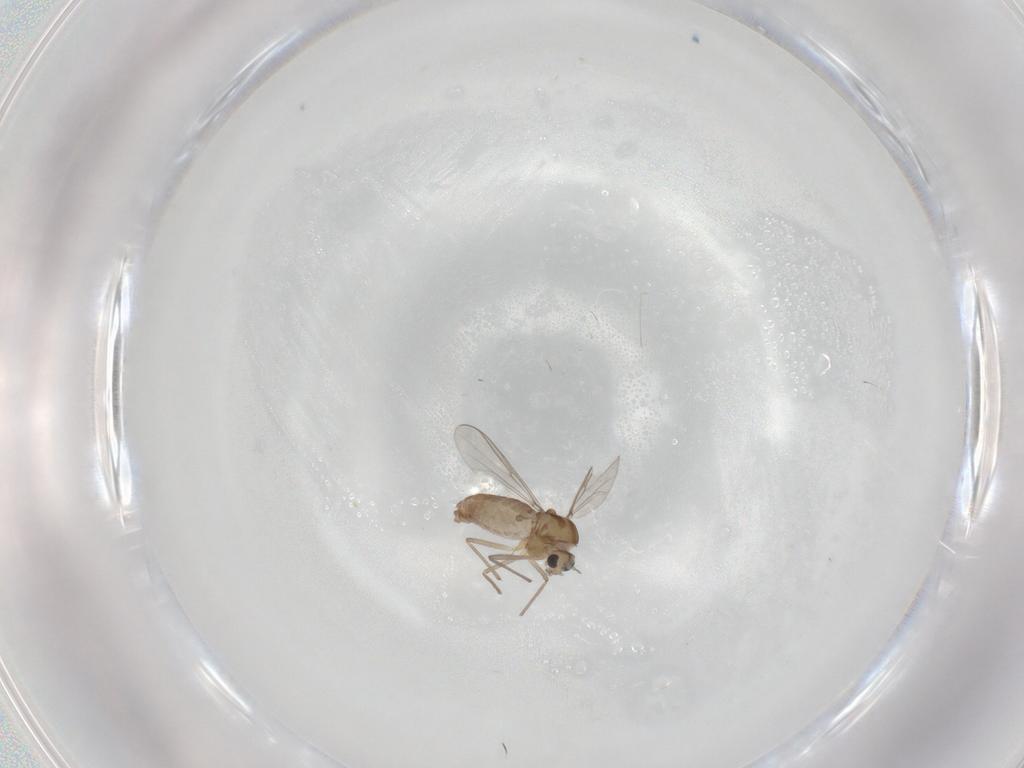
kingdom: Animalia
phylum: Arthropoda
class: Insecta
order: Diptera
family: Chironomidae
